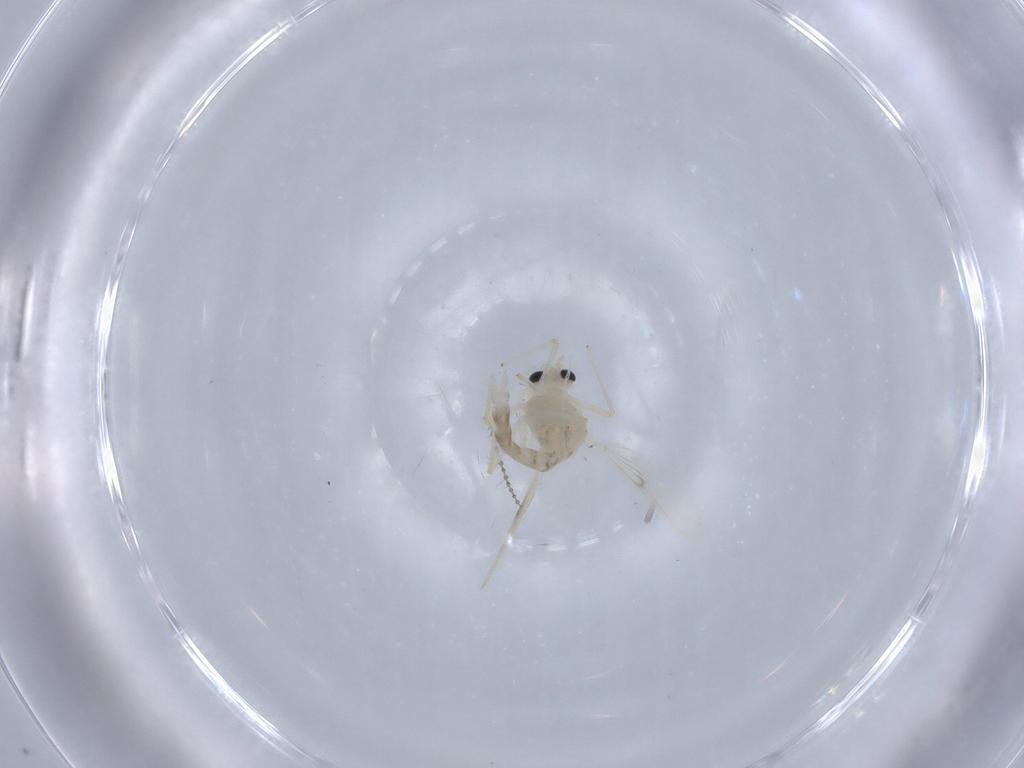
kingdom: Animalia
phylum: Arthropoda
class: Insecta
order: Diptera
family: Chironomidae
